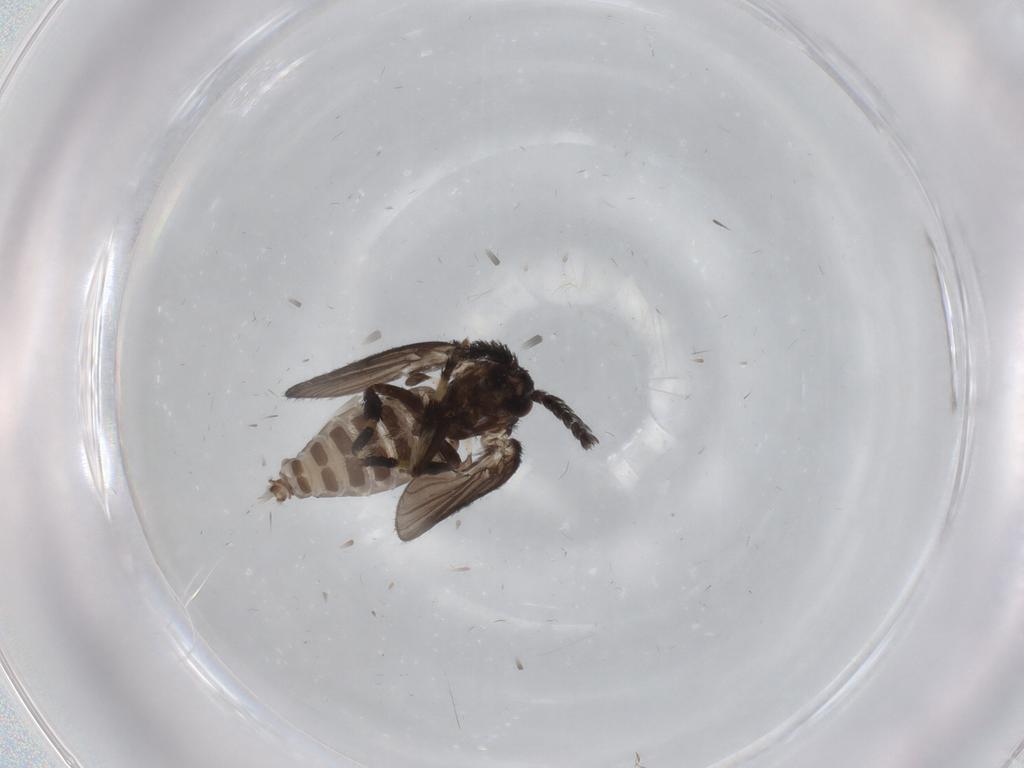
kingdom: Animalia
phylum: Arthropoda
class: Insecta
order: Diptera
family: Psychodidae
